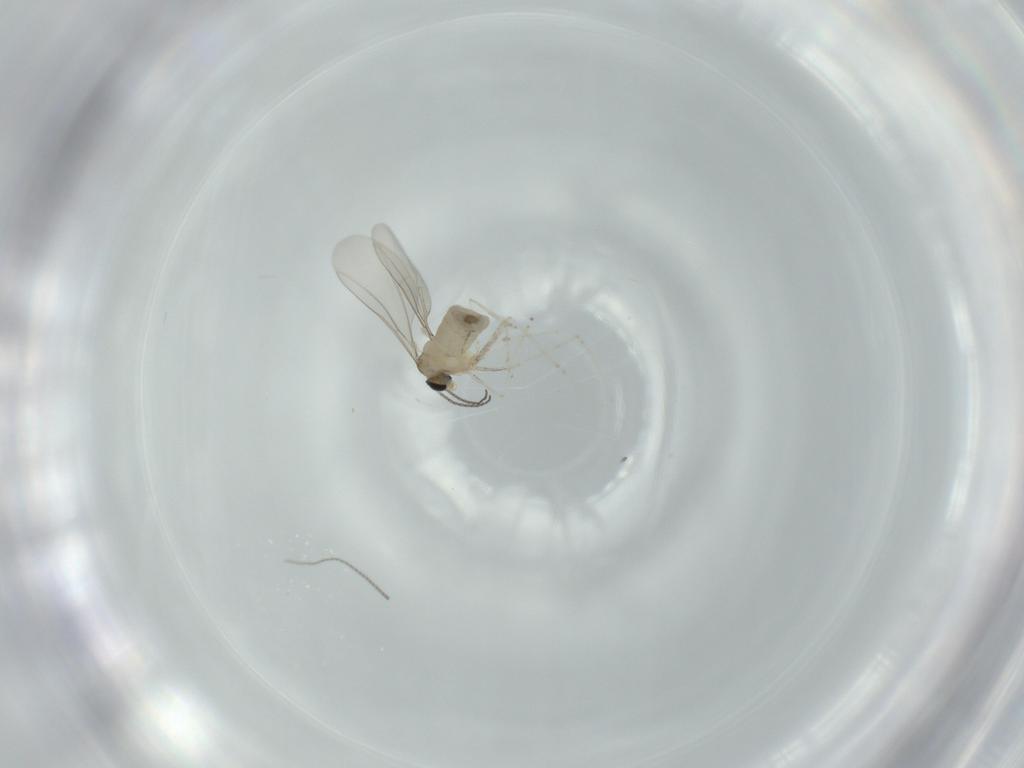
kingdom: Animalia
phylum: Arthropoda
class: Insecta
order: Diptera
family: Cecidomyiidae
